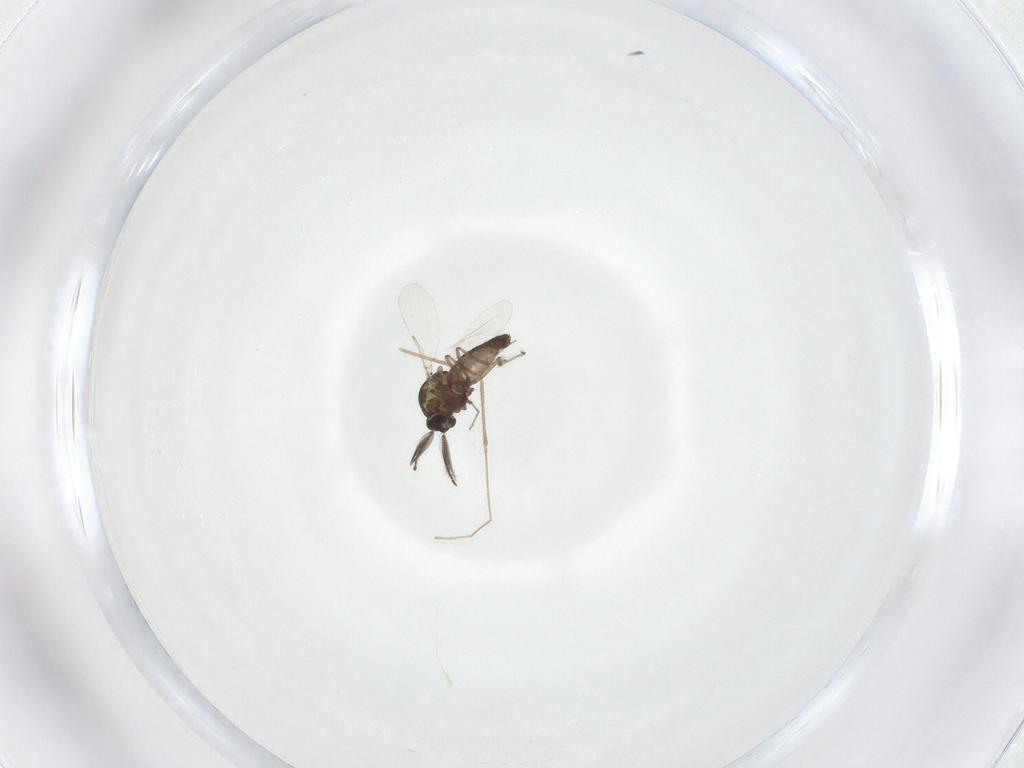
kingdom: Animalia
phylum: Arthropoda
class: Insecta
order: Diptera
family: Ceratopogonidae
